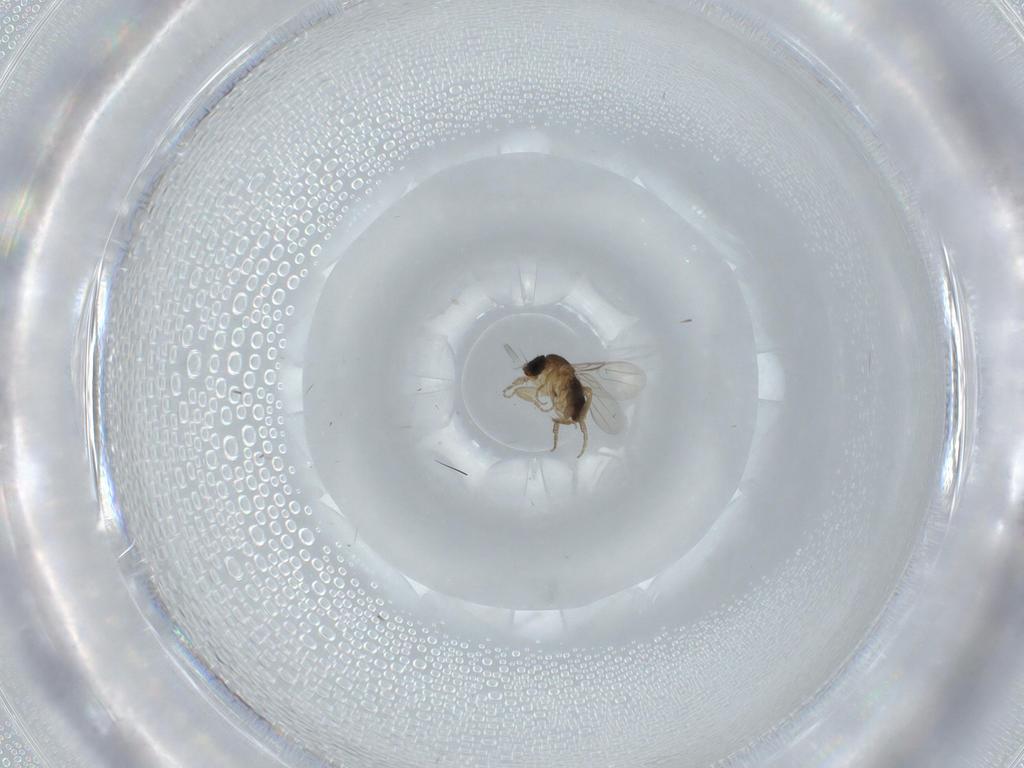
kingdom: Animalia
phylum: Arthropoda
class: Insecta
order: Diptera
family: Phoridae
